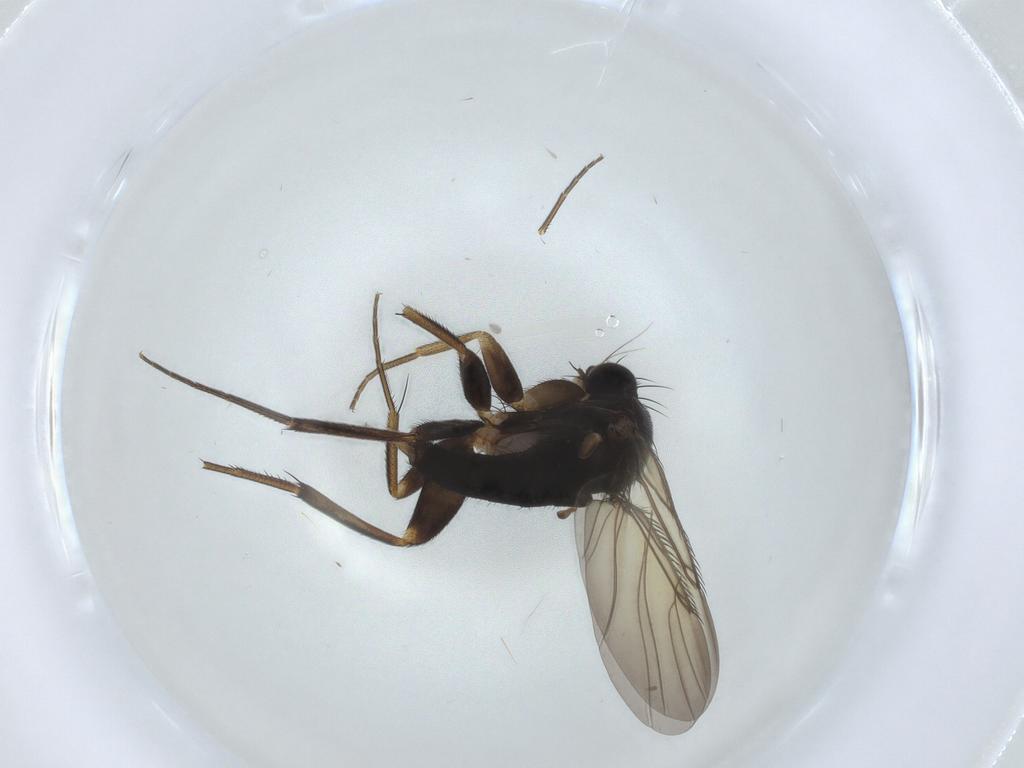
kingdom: Animalia
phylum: Arthropoda
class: Insecta
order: Diptera
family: Phoridae
